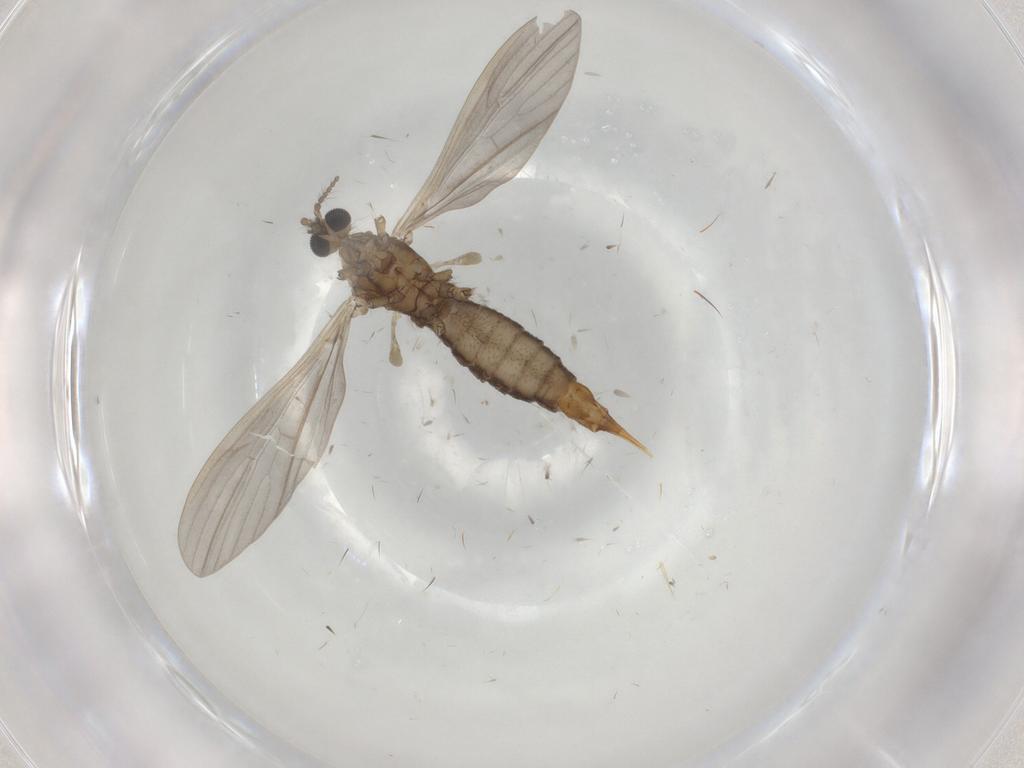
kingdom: Animalia
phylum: Arthropoda
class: Insecta
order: Diptera
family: Limoniidae
